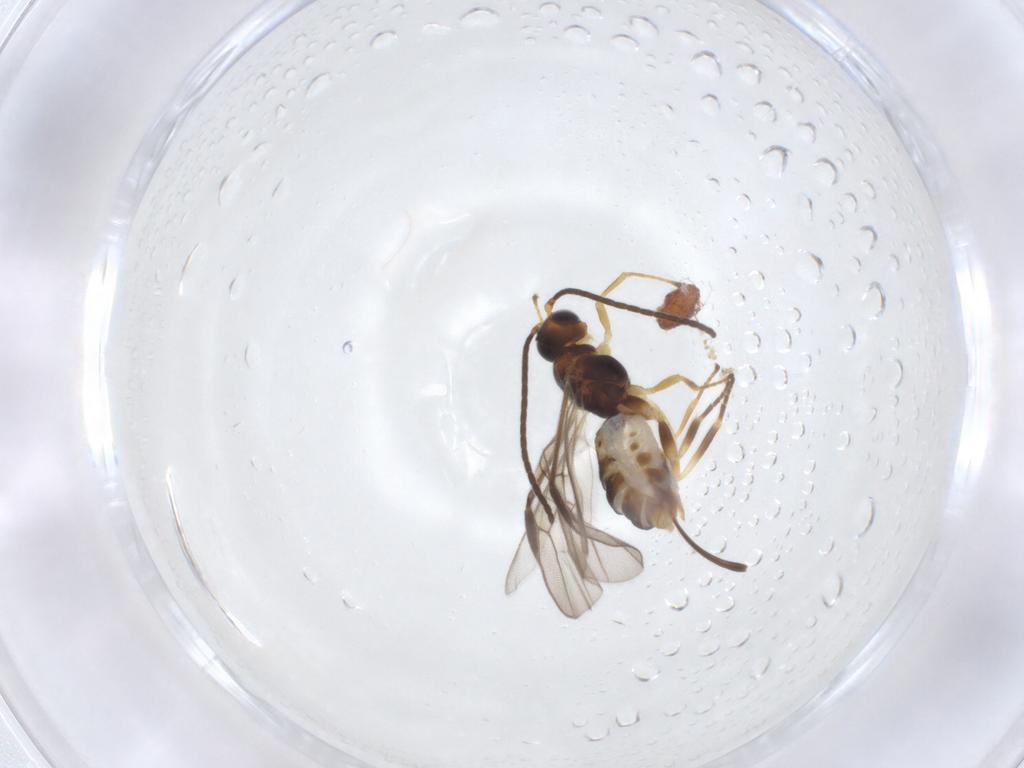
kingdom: Animalia
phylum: Arthropoda
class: Insecta
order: Hymenoptera
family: Braconidae
